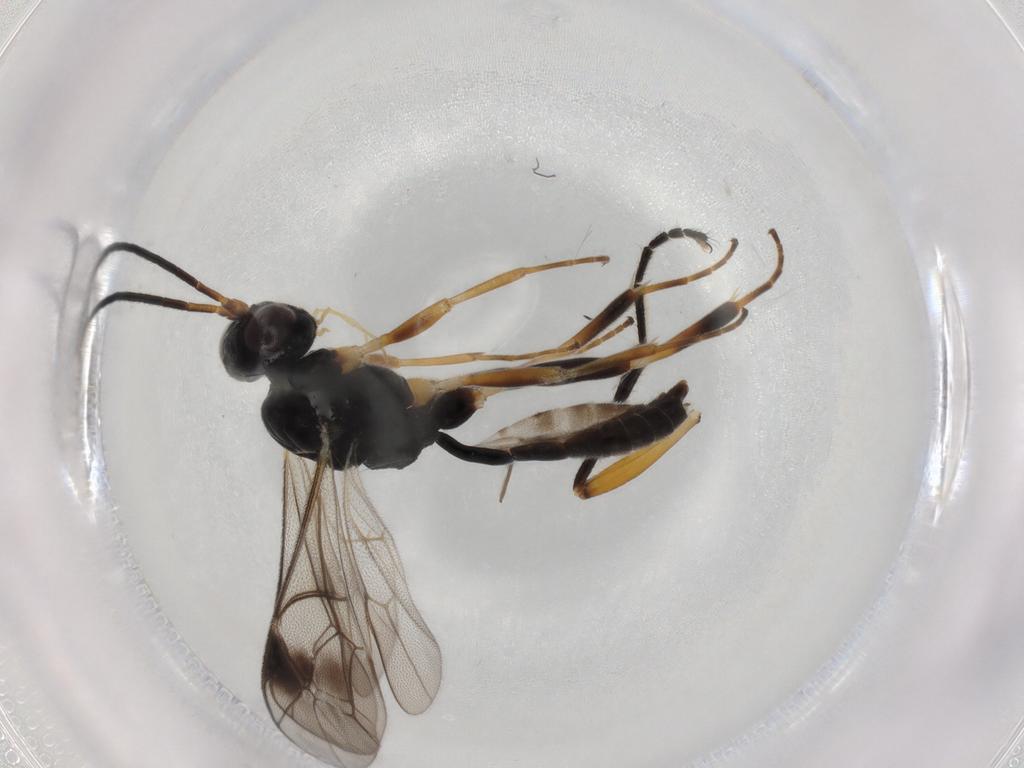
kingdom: Animalia
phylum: Arthropoda
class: Insecta
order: Hymenoptera
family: Ichneumonidae
